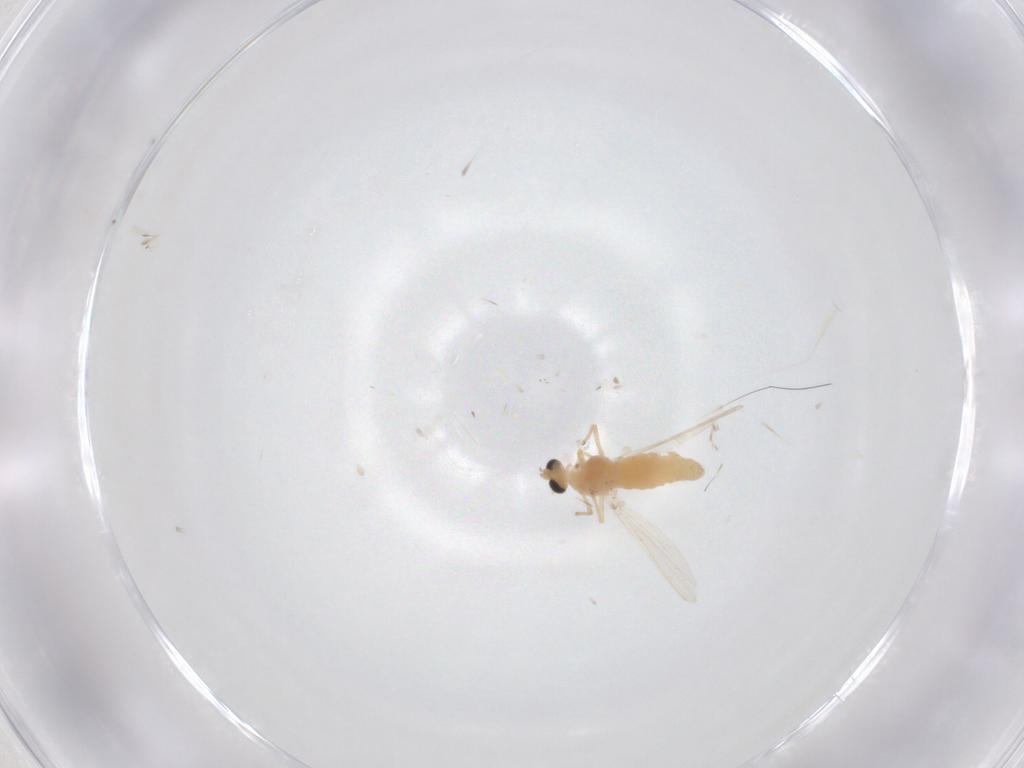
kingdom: Animalia
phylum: Arthropoda
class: Insecta
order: Diptera
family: Chironomidae
